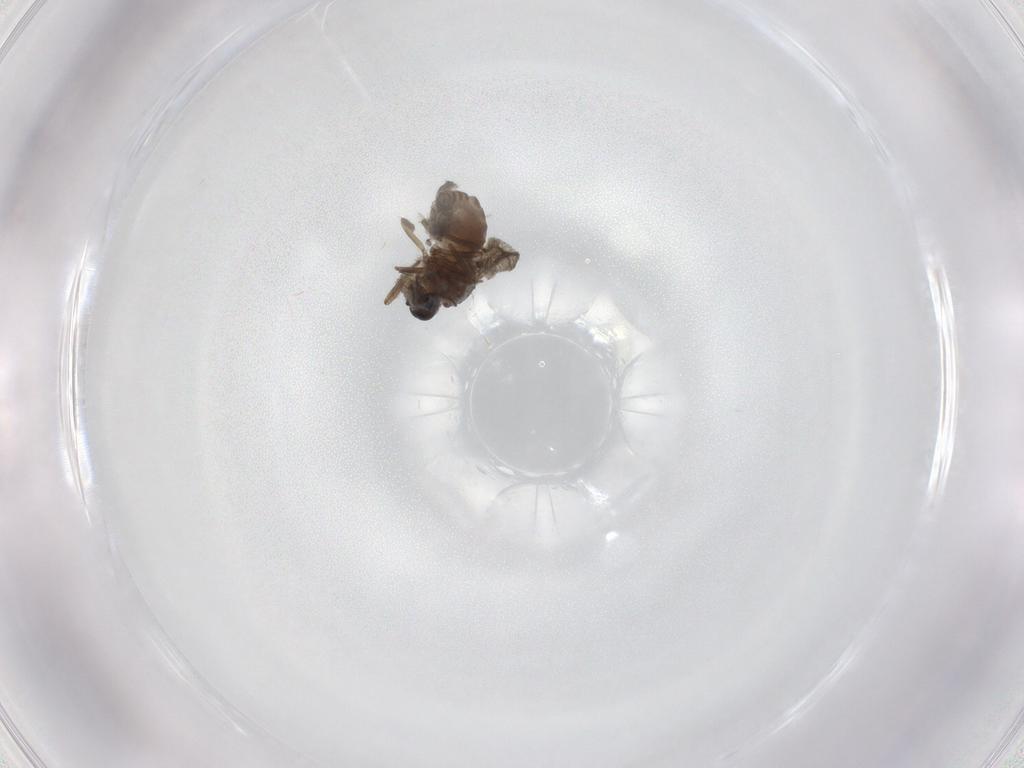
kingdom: Animalia
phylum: Arthropoda
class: Insecta
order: Diptera
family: Chironomidae
